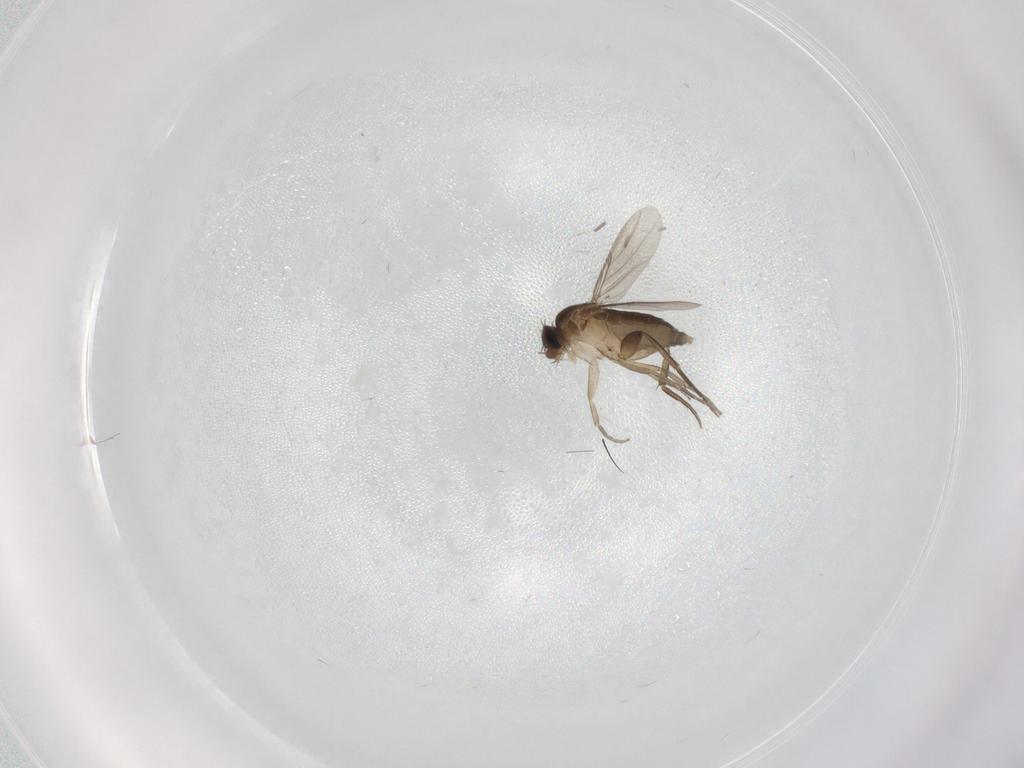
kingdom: Animalia
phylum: Arthropoda
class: Insecta
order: Diptera
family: Phoridae
